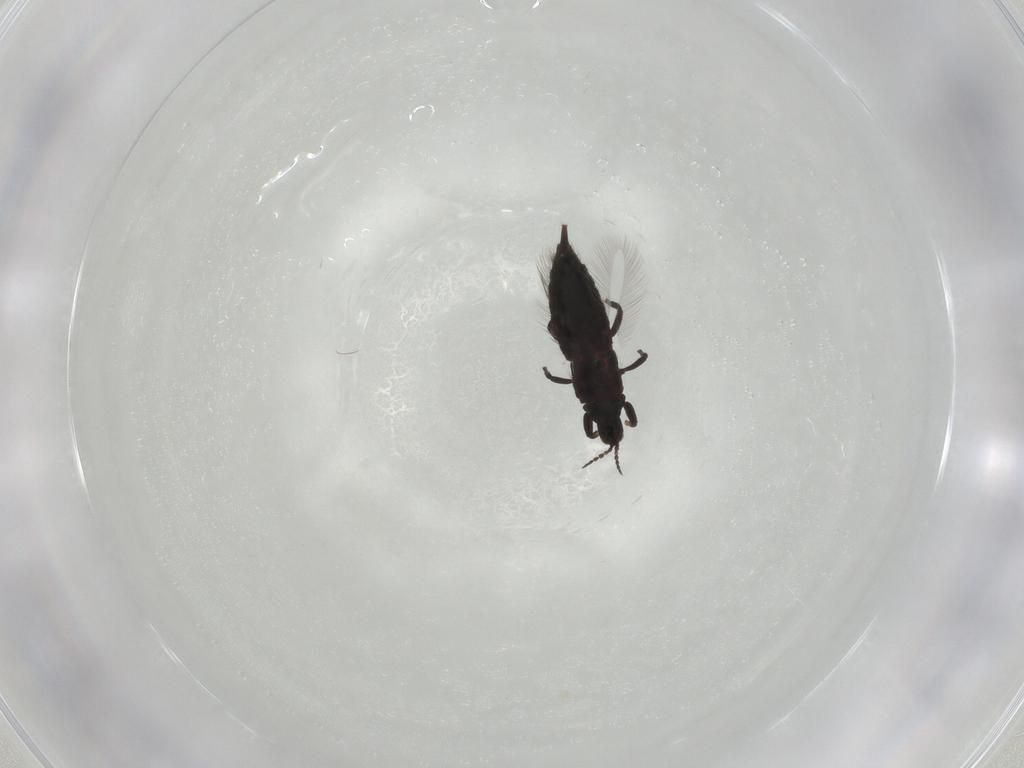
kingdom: Animalia
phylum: Arthropoda
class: Insecta
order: Thysanoptera
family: Phlaeothripidae
